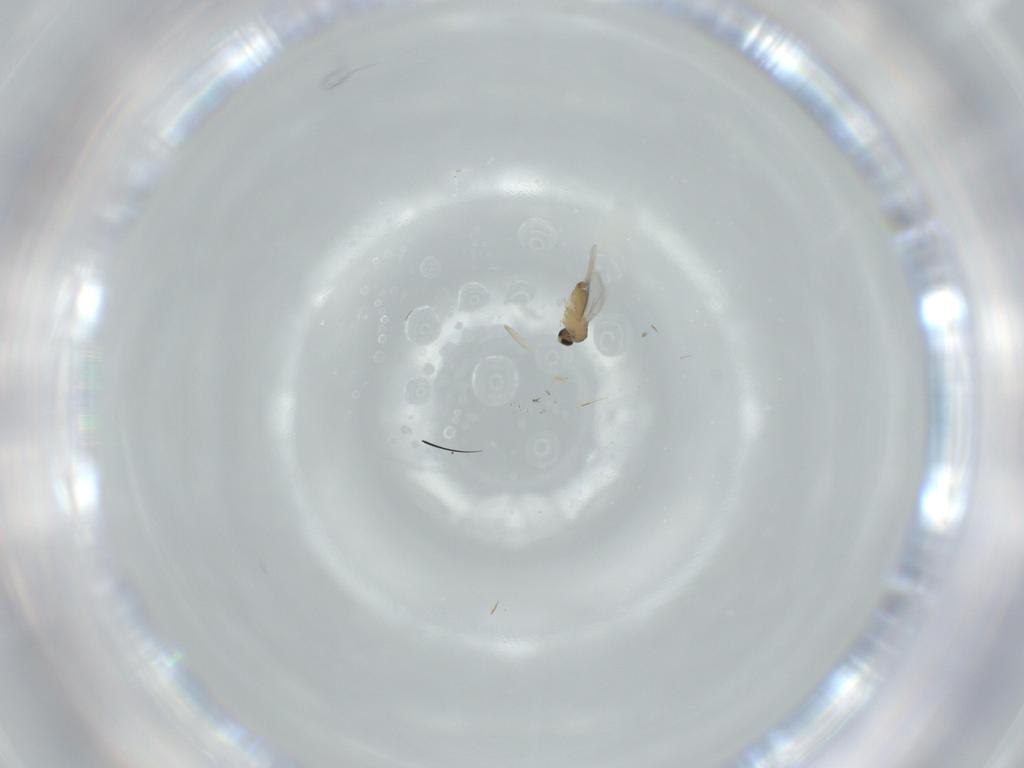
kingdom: Animalia
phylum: Arthropoda
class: Insecta
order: Diptera
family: Cecidomyiidae
